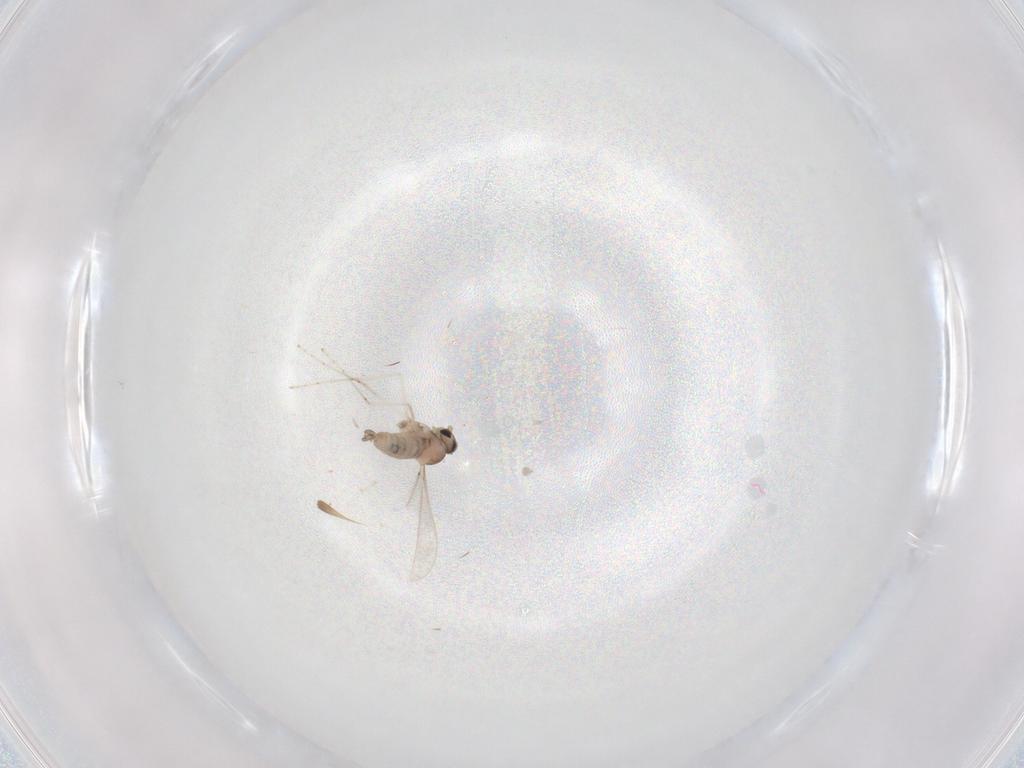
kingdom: Animalia
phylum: Arthropoda
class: Insecta
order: Diptera
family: Milichiidae
